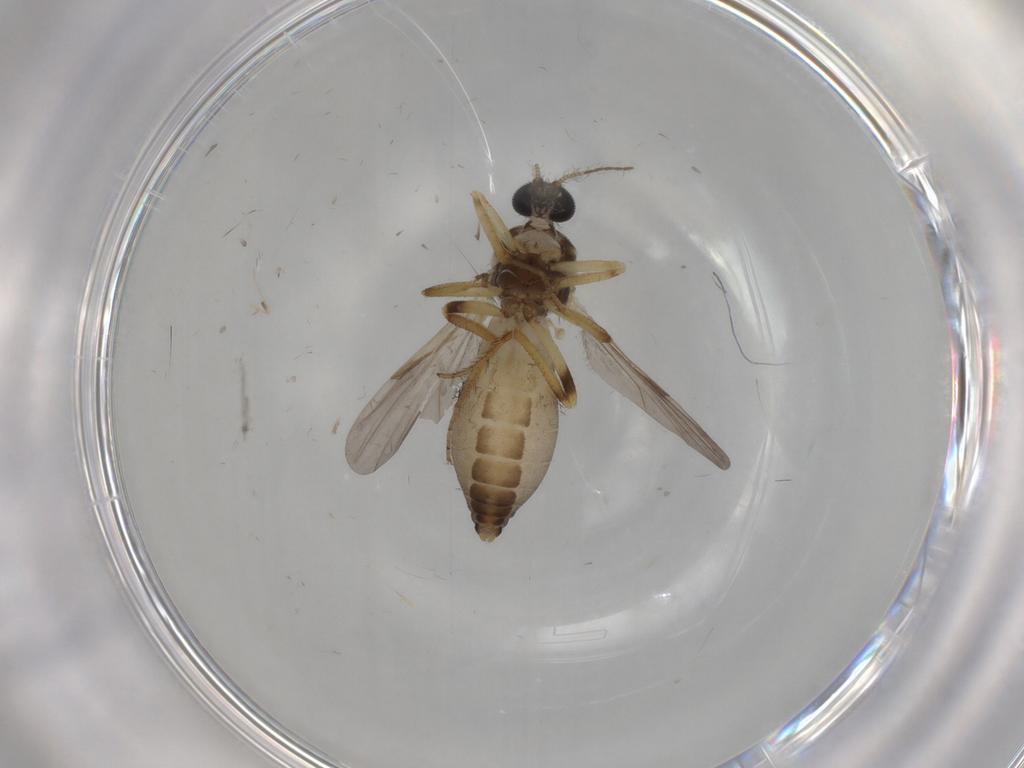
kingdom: Animalia
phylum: Arthropoda
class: Insecta
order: Diptera
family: Ceratopogonidae
